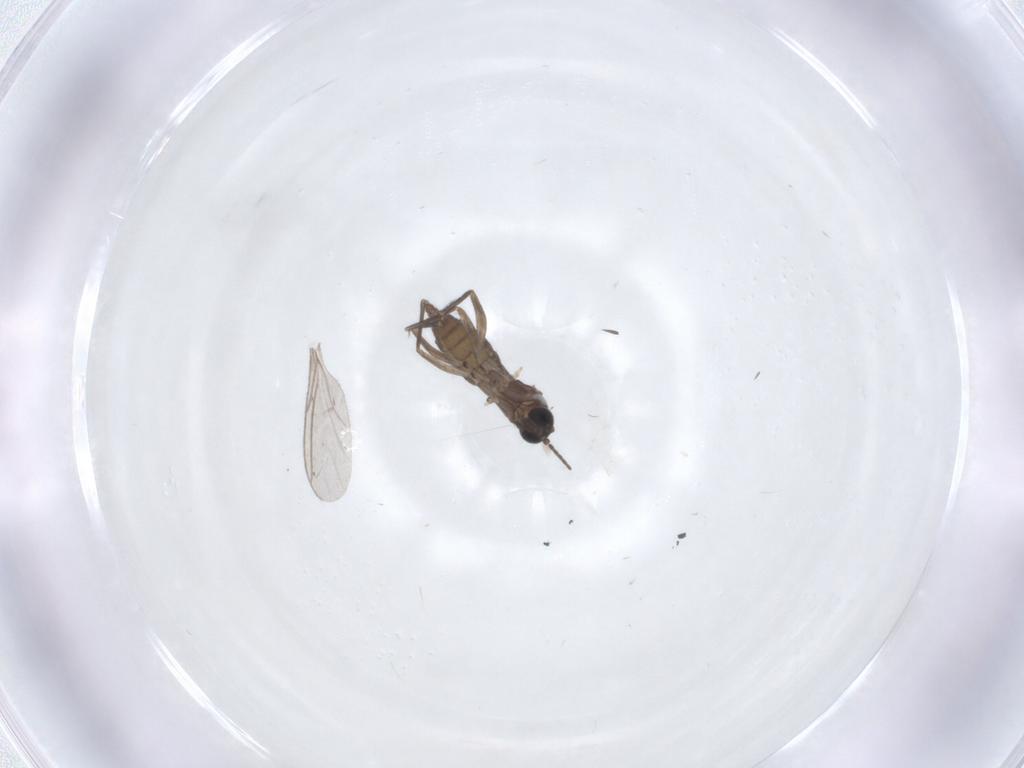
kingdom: Animalia
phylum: Arthropoda
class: Insecta
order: Diptera
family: Sciaridae
